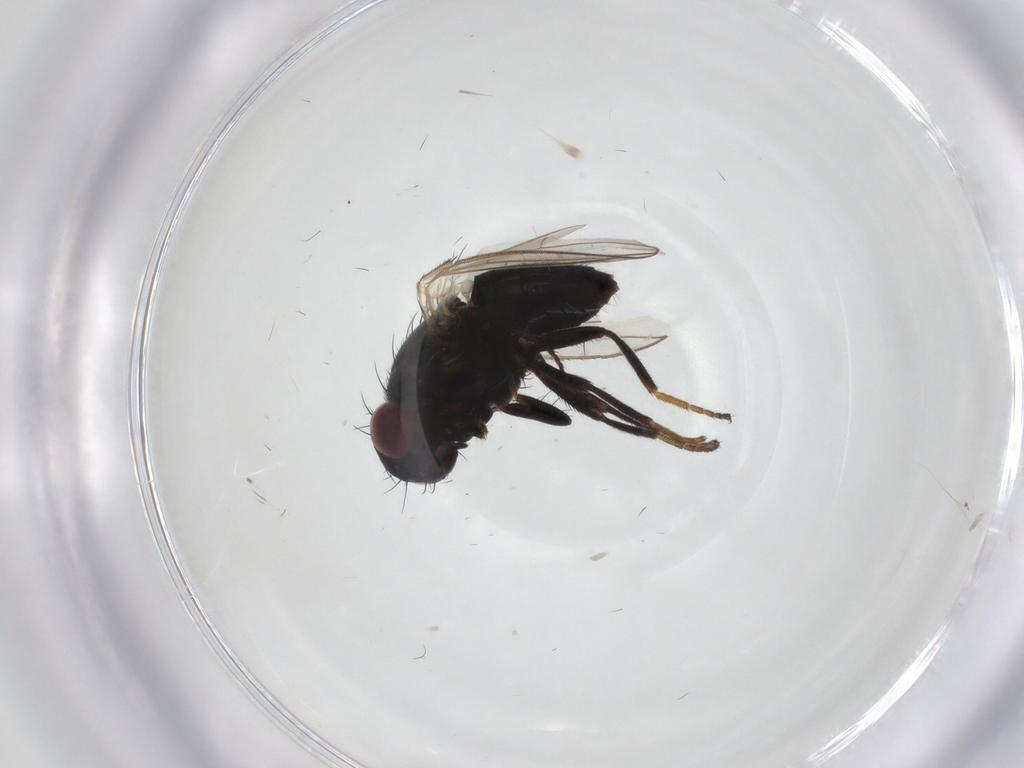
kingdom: Animalia
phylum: Arthropoda
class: Insecta
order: Diptera
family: Carnidae
